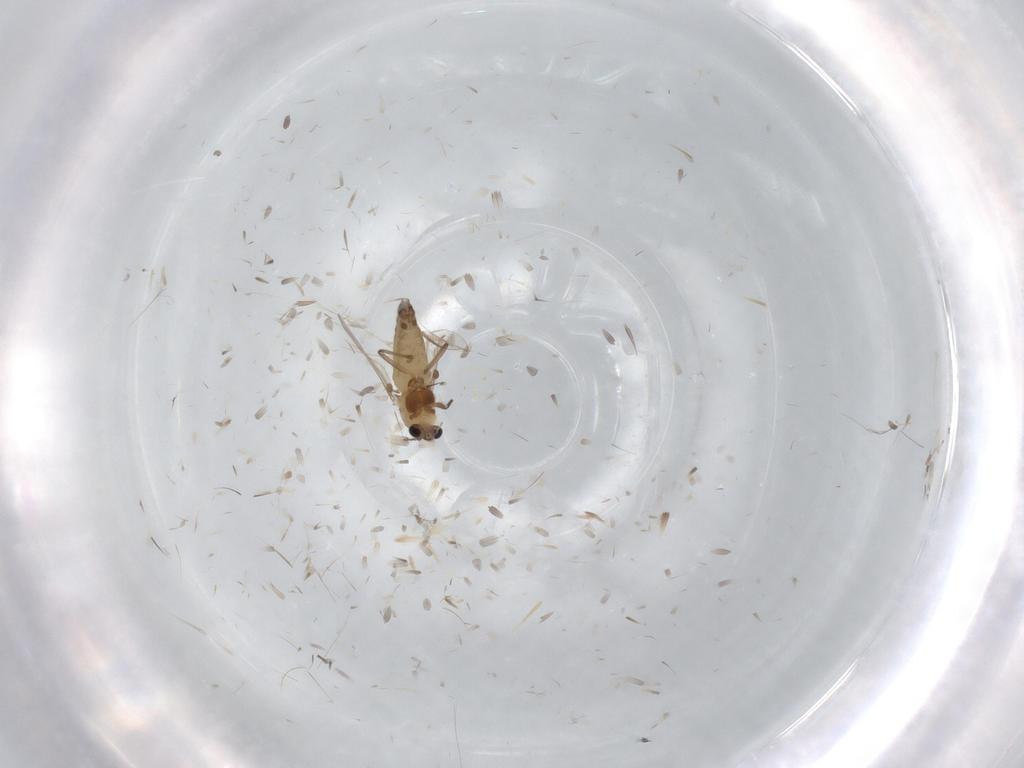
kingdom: Animalia
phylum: Arthropoda
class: Insecta
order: Diptera
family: Chironomidae
